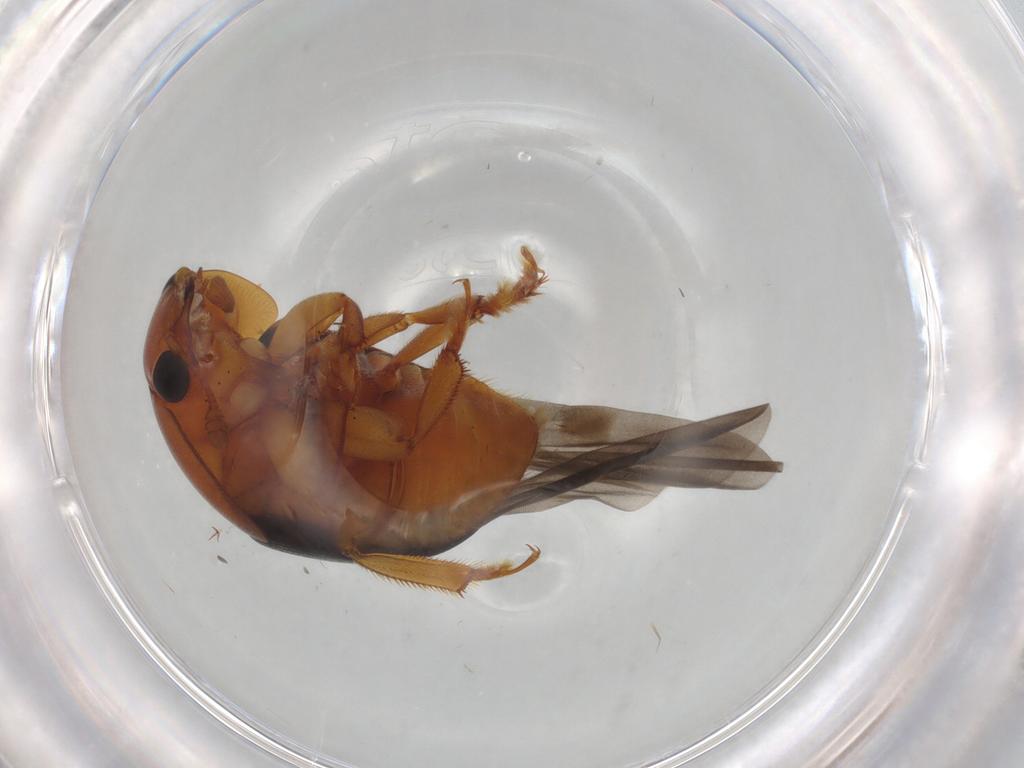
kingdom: Animalia
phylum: Arthropoda
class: Insecta
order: Coleoptera
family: Nitidulidae
